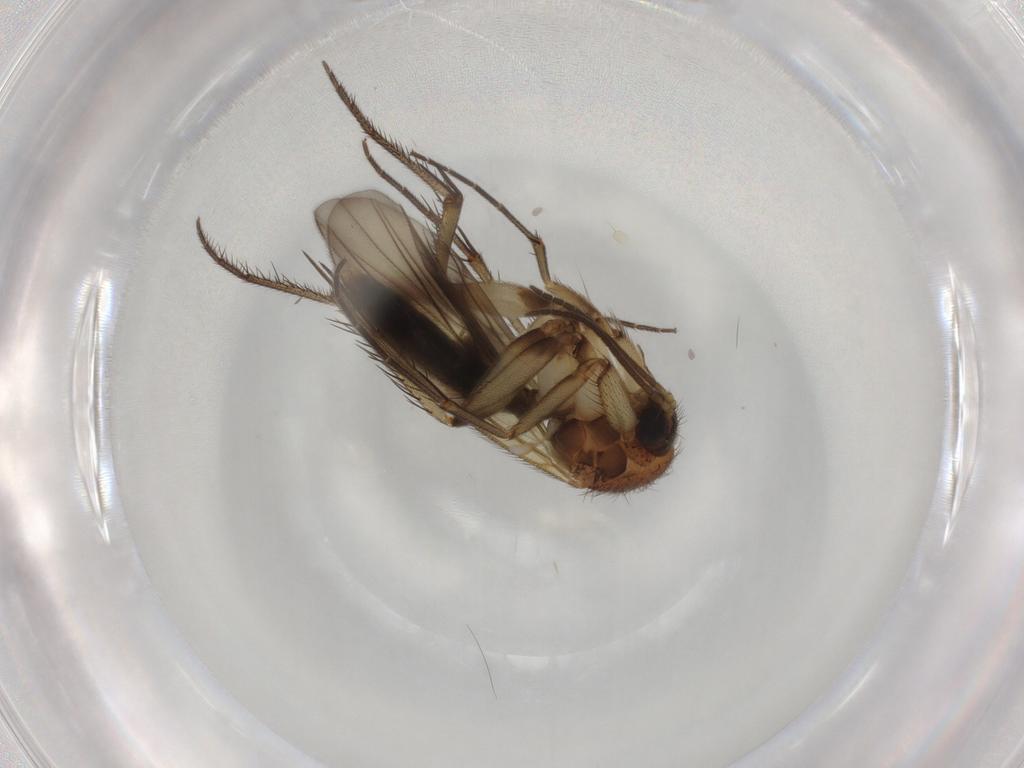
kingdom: Animalia
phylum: Arthropoda
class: Insecta
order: Diptera
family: Mycetophilidae
